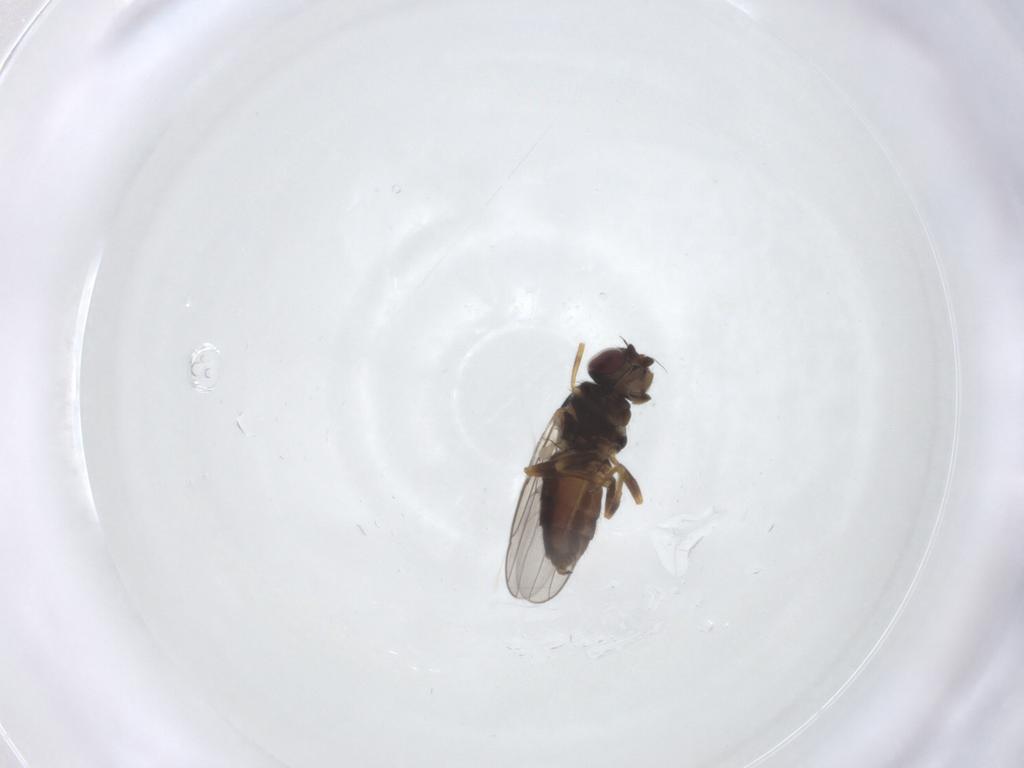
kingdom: Animalia
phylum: Arthropoda
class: Insecta
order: Diptera
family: Chloropidae
